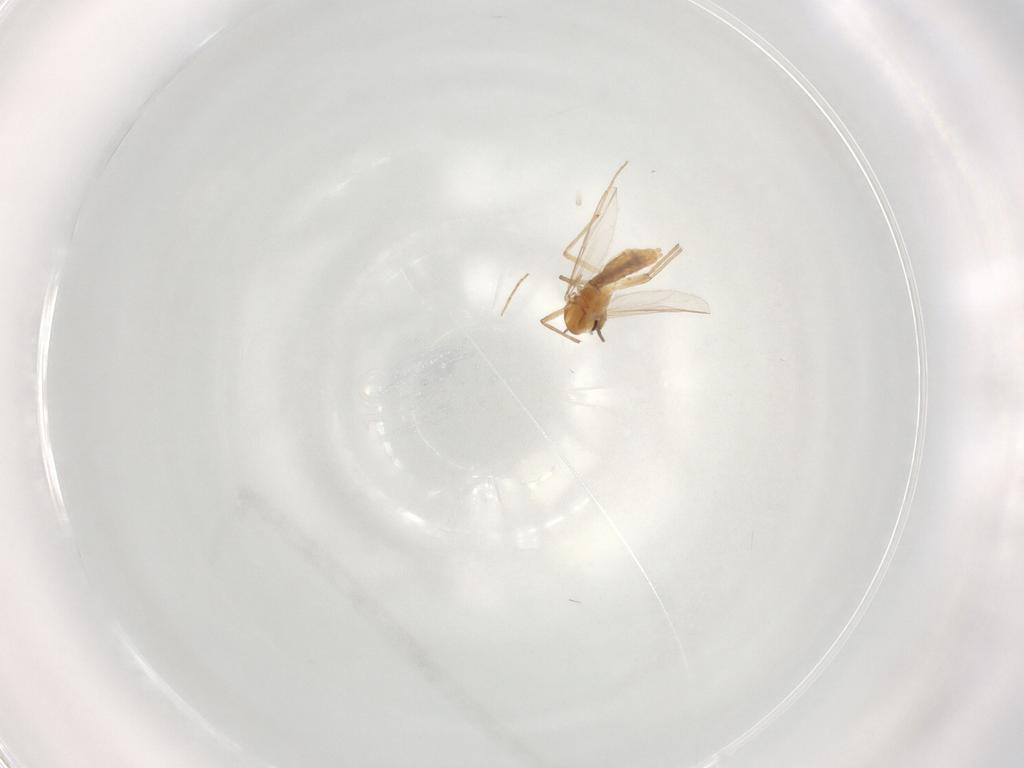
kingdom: Animalia
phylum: Arthropoda
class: Insecta
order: Diptera
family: Chironomidae
